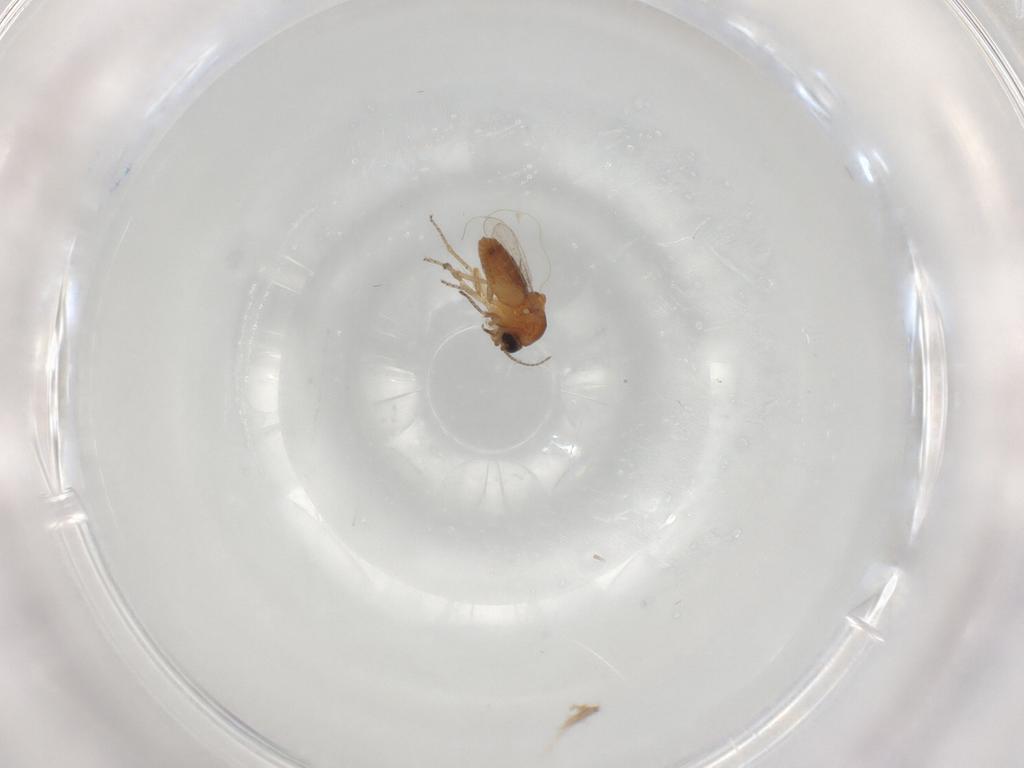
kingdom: Animalia
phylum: Arthropoda
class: Insecta
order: Diptera
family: Ceratopogonidae
